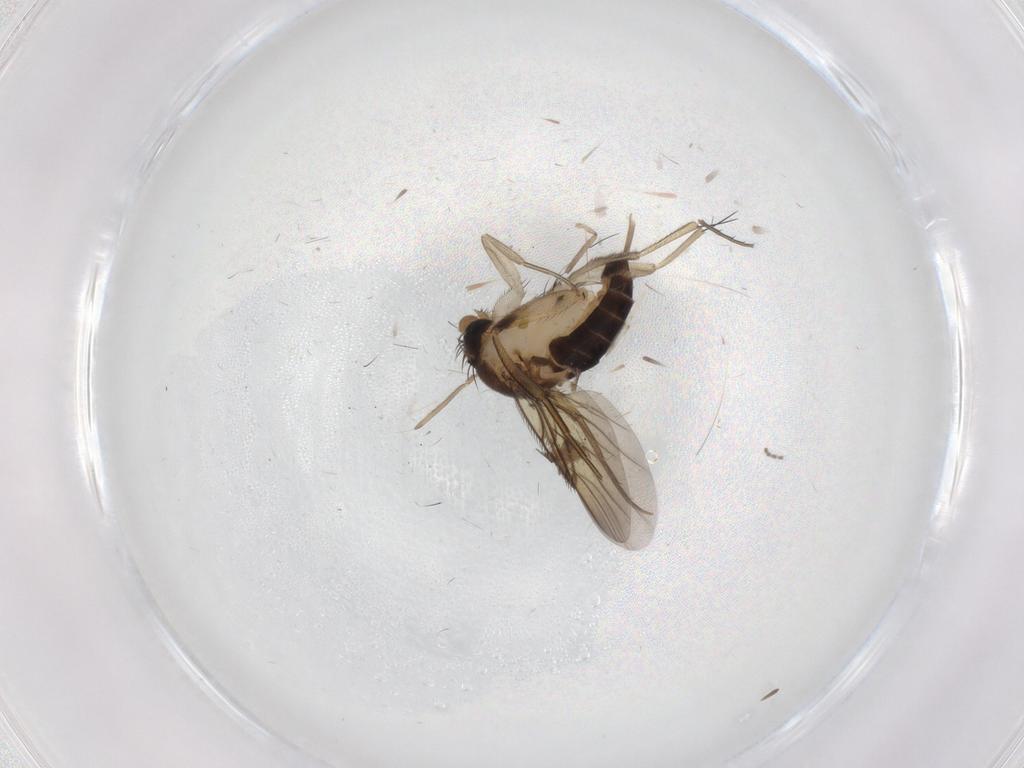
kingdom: Animalia
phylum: Arthropoda
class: Insecta
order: Diptera
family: Phoridae
